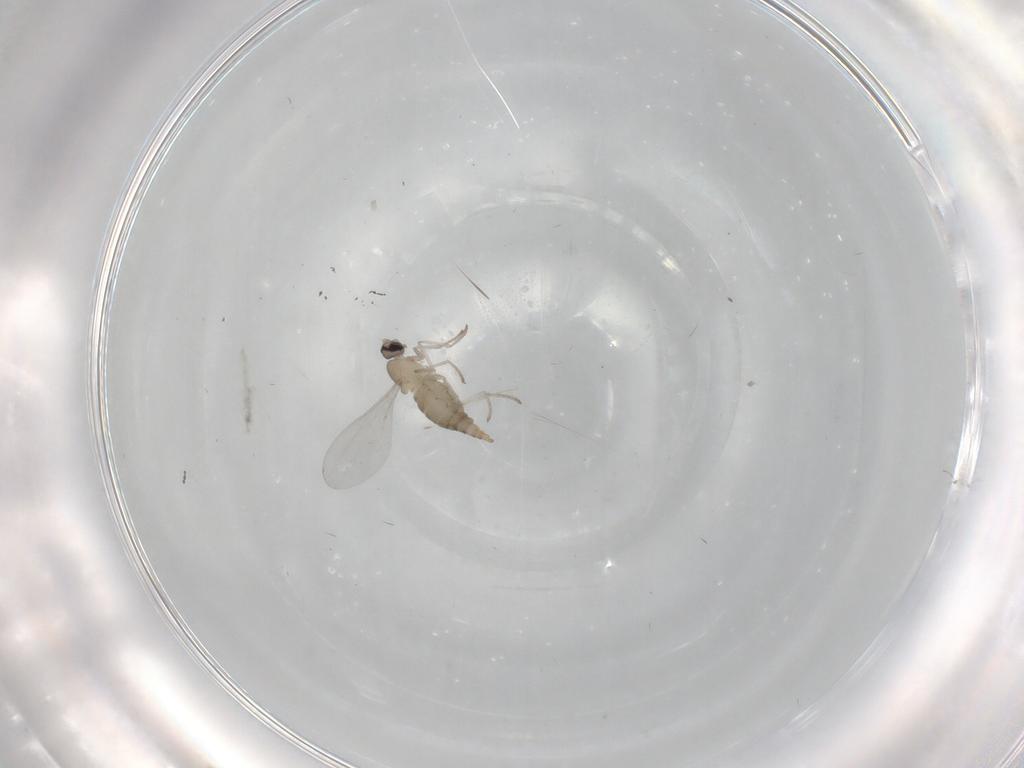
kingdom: Animalia
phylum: Arthropoda
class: Insecta
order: Diptera
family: Cecidomyiidae
